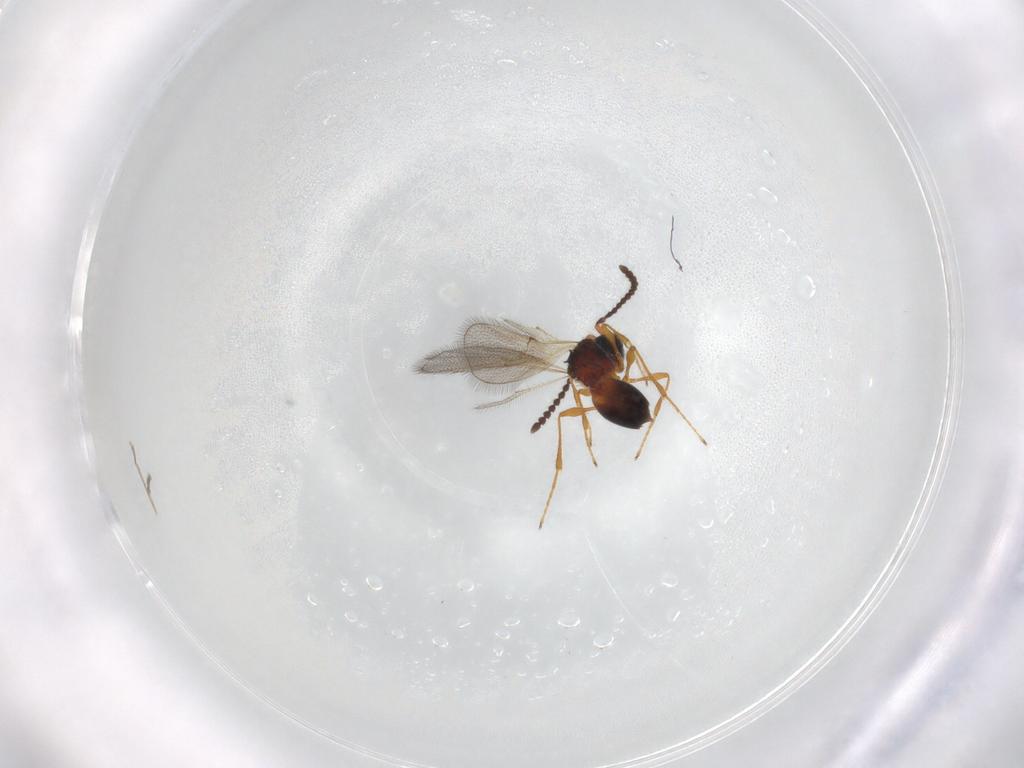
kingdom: Animalia
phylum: Arthropoda
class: Insecta
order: Hymenoptera
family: Diapriidae
